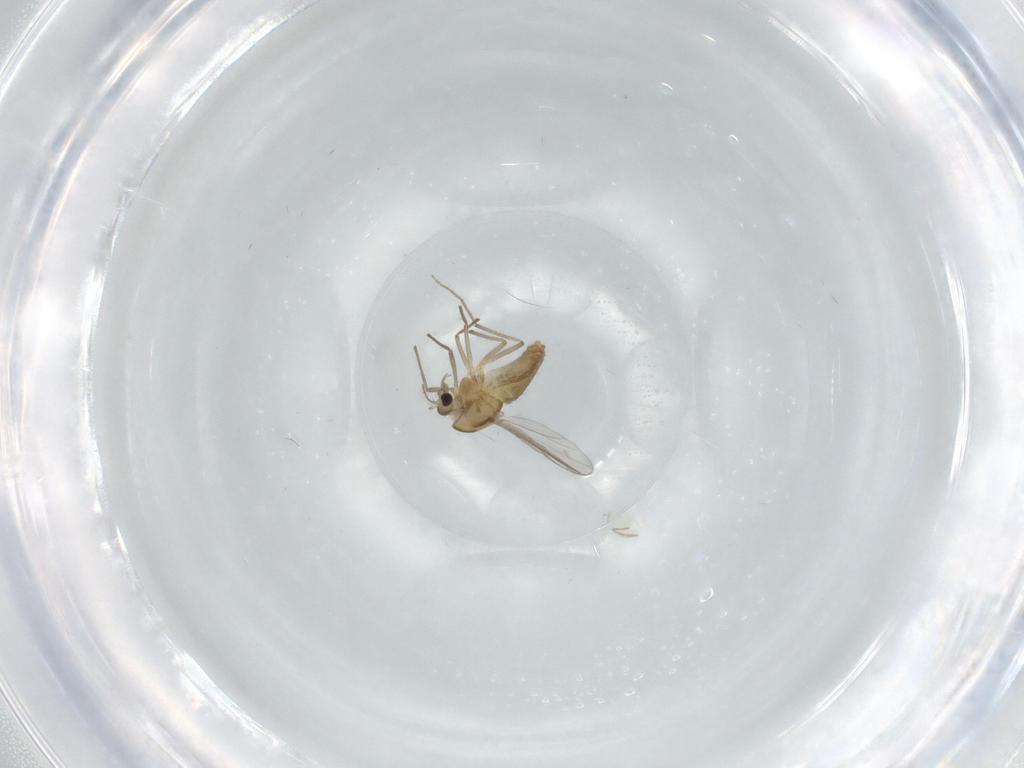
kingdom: Animalia
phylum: Arthropoda
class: Insecta
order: Diptera
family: Chironomidae
